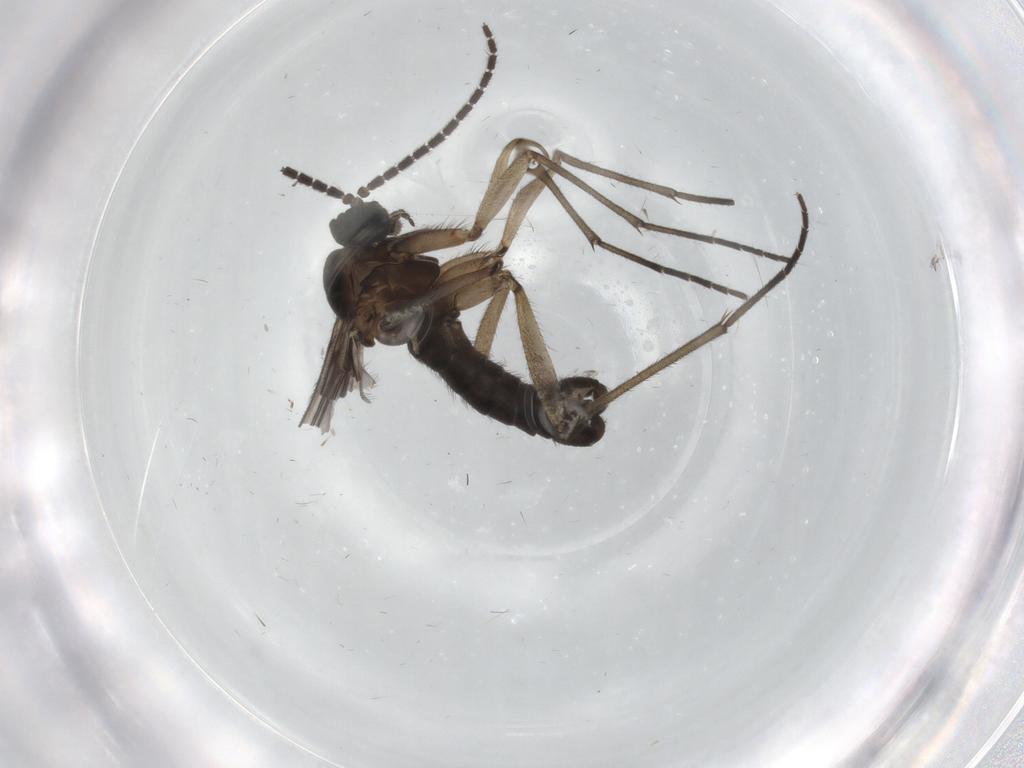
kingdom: Animalia
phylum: Arthropoda
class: Insecta
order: Diptera
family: Sciaridae
